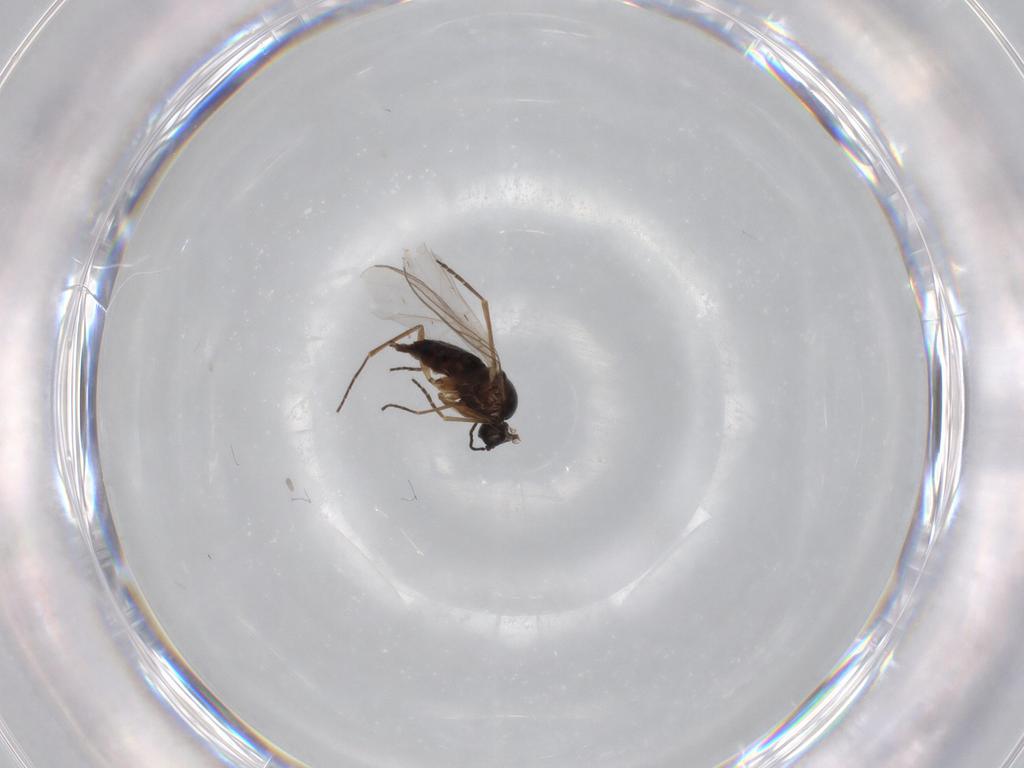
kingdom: Animalia
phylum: Arthropoda
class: Insecta
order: Diptera
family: Sciaridae
